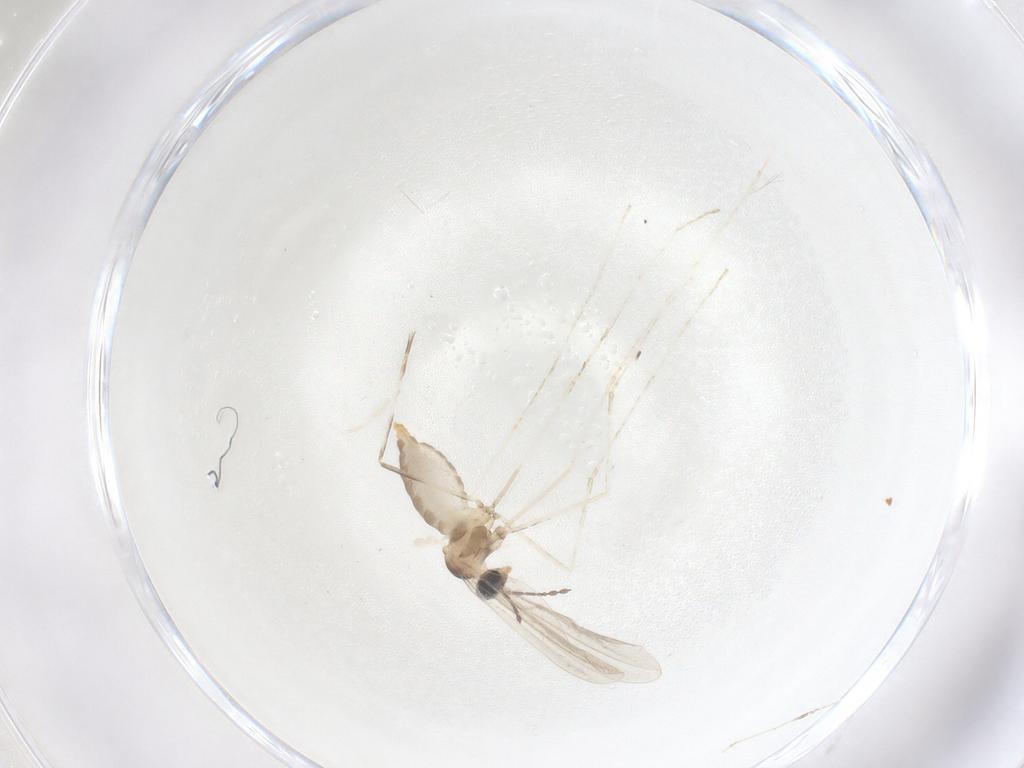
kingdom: Animalia
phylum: Arthropoda
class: Insecta
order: Diptera
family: Cecidomyiidae
